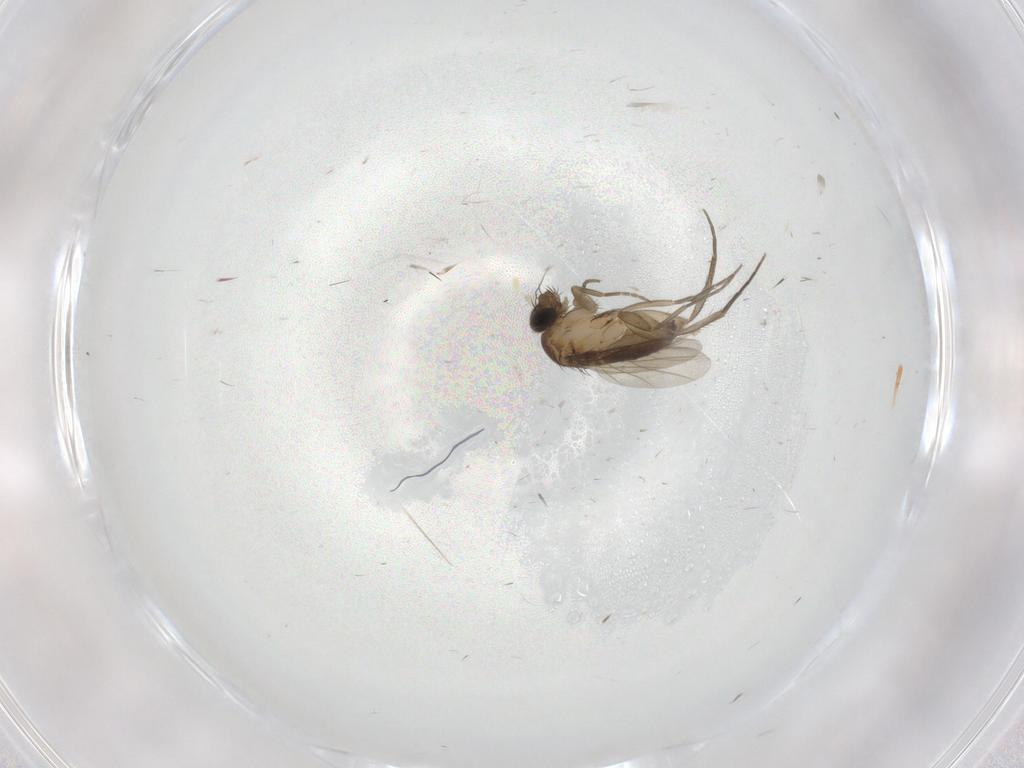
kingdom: Animalia
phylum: Arthropoda
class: Insecta
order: Diptera
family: Phoridae
